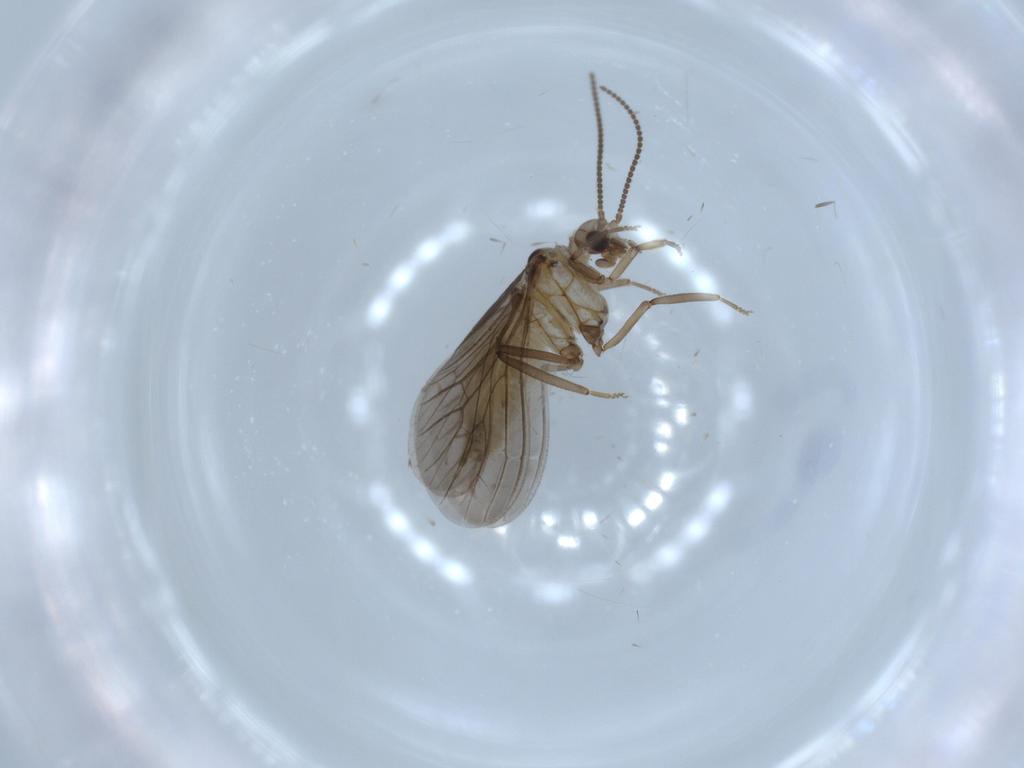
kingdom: Animalia
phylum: Arthropoda
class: Insecta
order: Neuroptera
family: Coniopterygidae
